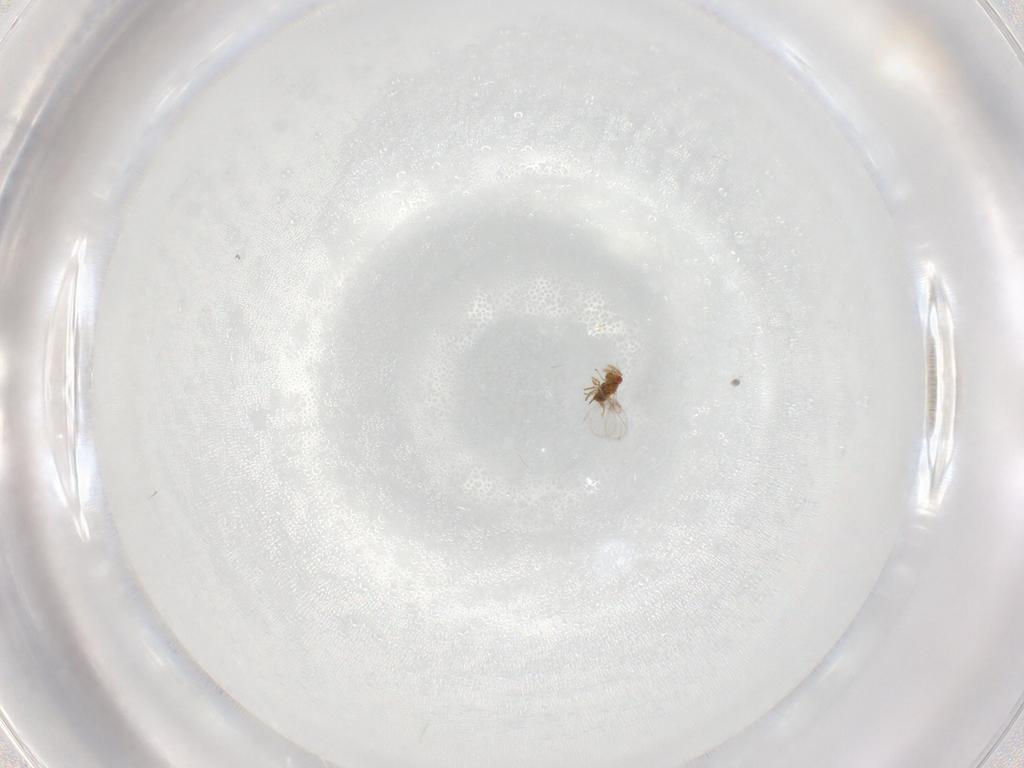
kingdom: Animalia
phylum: Arthropoda
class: Insecta
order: Hymenoptera
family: Trichogrammatidae
